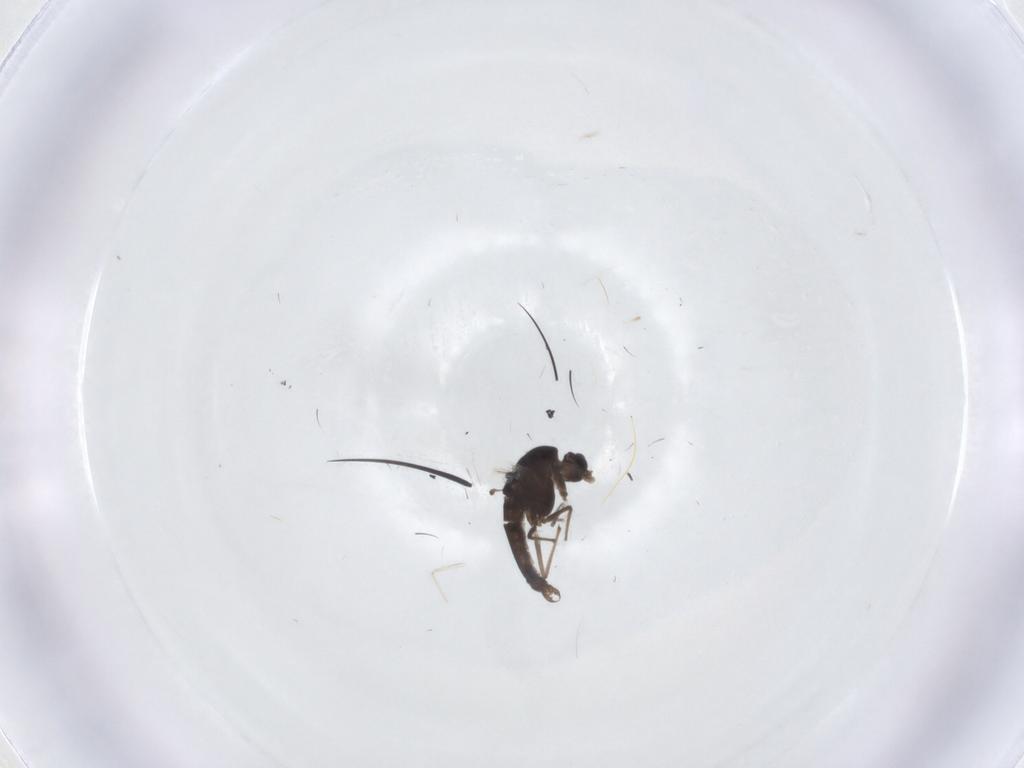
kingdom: Animalia
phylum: Arthropoda
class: Insecta
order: Diptera
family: Chironomidae
